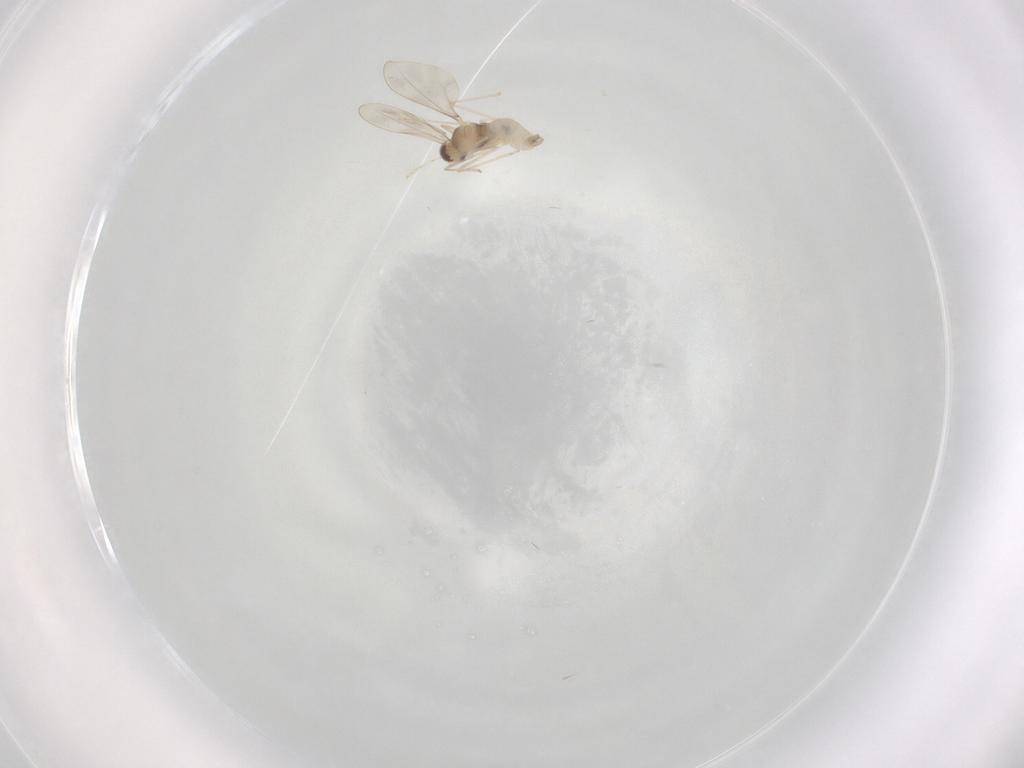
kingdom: Animalia
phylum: Arthropoda
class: Insecta
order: Diptera
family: Cecidomyiidae
